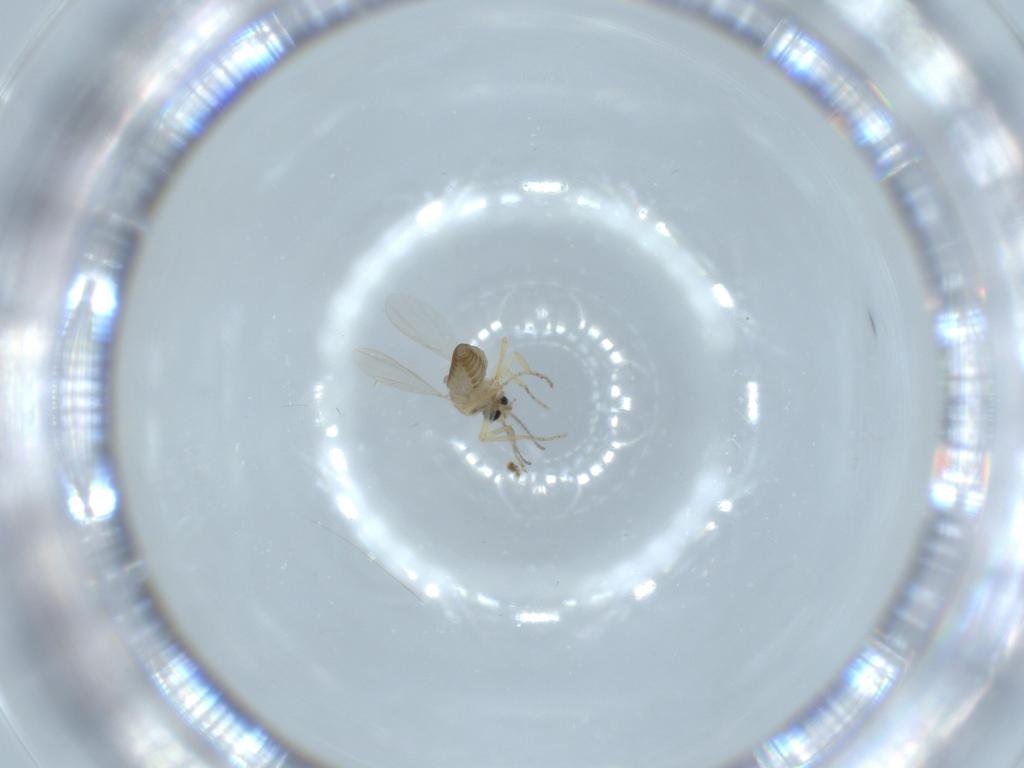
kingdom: Animalia
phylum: Arthropoda
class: Insecta
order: Diptera
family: Ceratopogonidae
